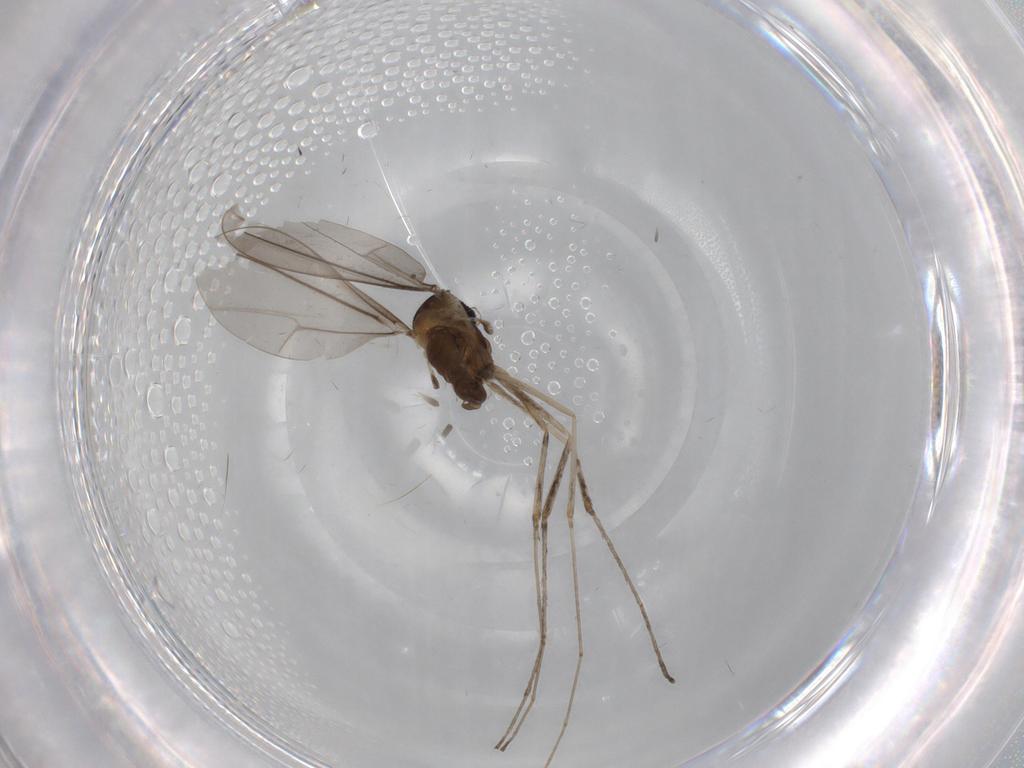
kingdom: Animalia
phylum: Arthropoda
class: Insecta
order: Diptera
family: Cecidomyiidae
